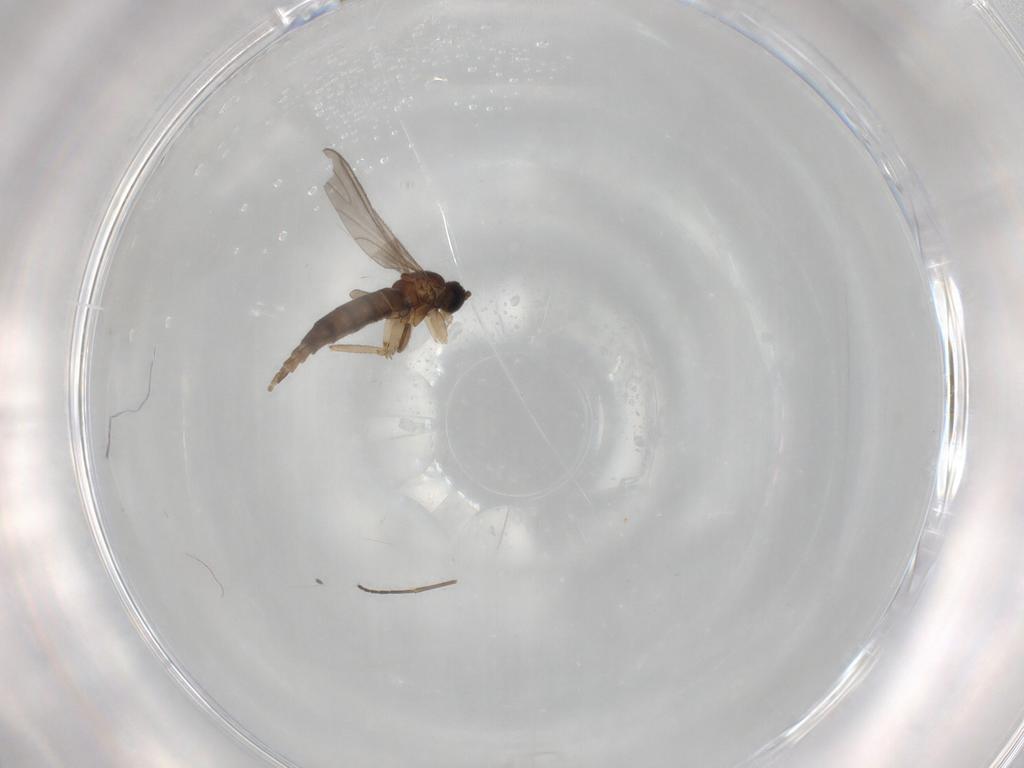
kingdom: Animalia
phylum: Arthropoda
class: Insecta
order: Diptera
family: Sciaridae
